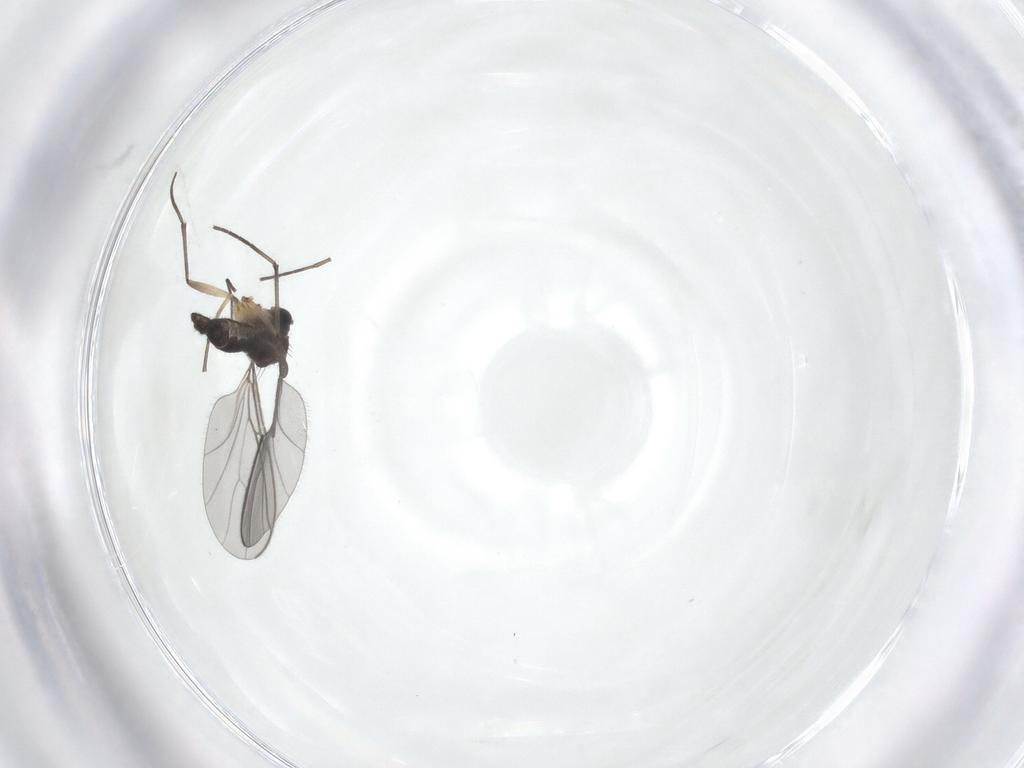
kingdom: Animalia
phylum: Arthropoda
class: Insecta
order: Diptera
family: Sciaridae
